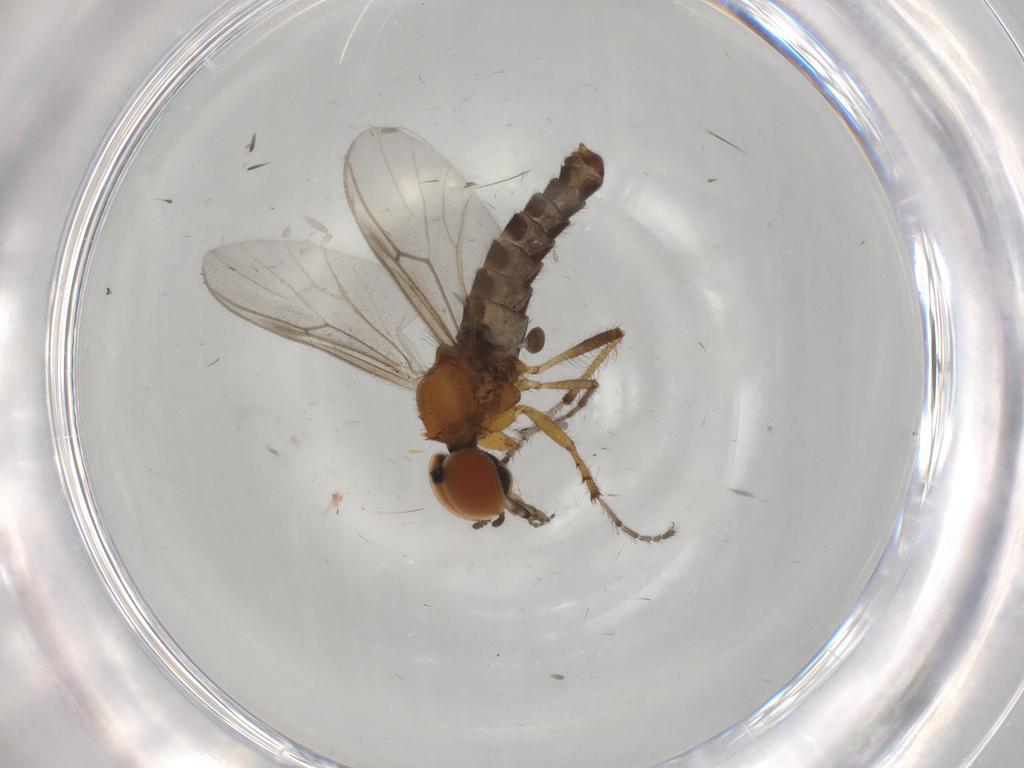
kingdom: Animalia
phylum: Arthropoda
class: Insecta
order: Diptera
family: Bibionidae
